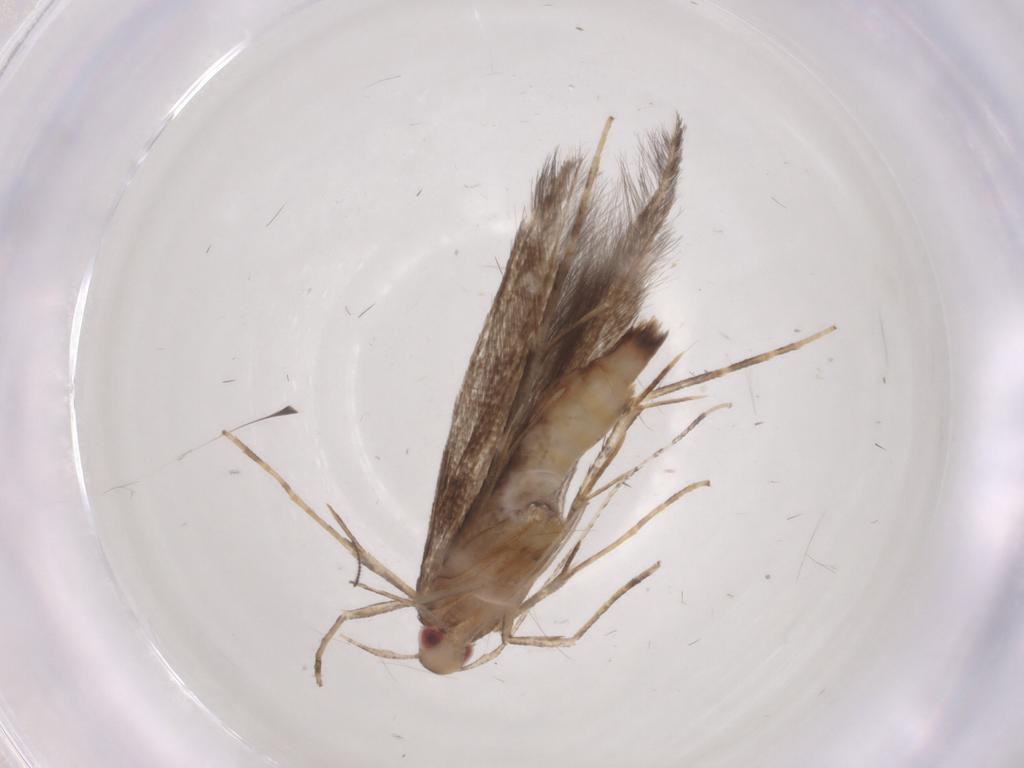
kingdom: Animalia
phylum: Arthropoda
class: Insecta
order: Lepidoptera
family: Cosmopterigidae
